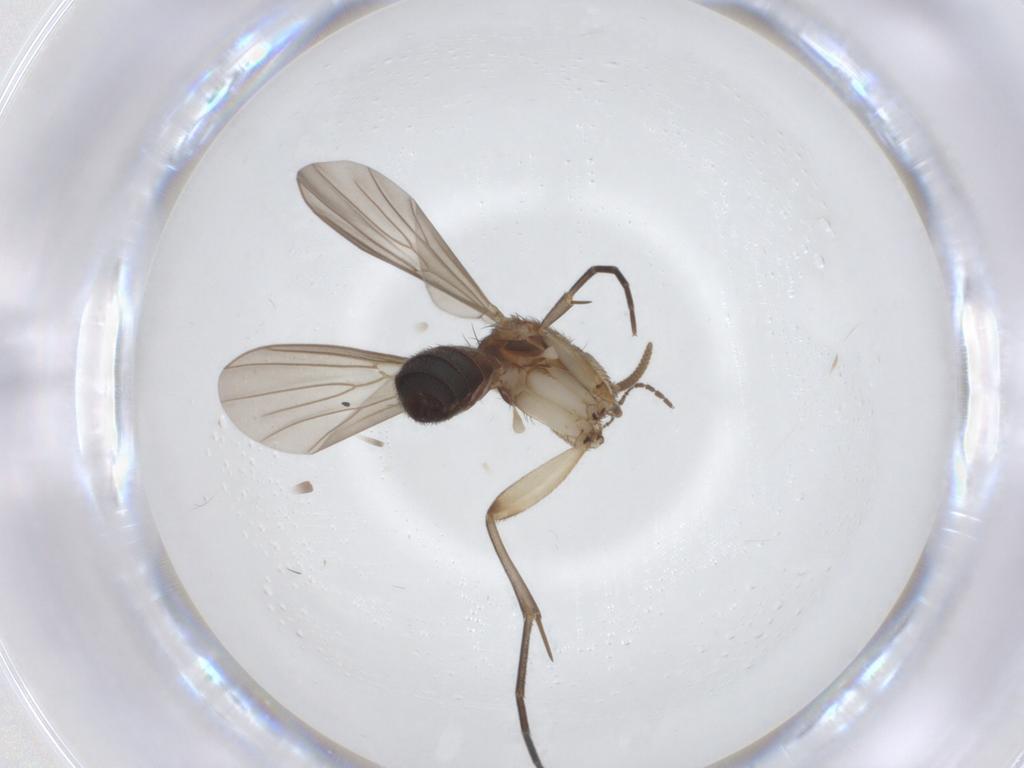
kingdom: Animalia
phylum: Arthropoda
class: Insecta
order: Diptera
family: Mycetophilidae
